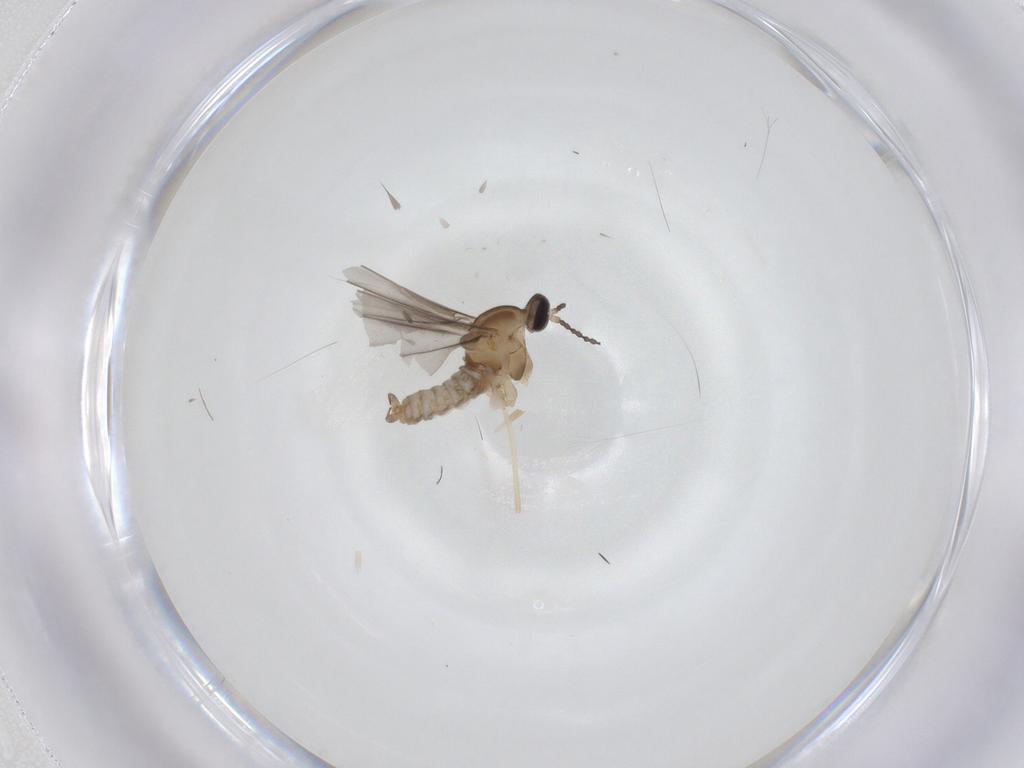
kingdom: Animalia
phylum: Arthropoda
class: Insecta
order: Diptera
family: Cecidomyiidae
